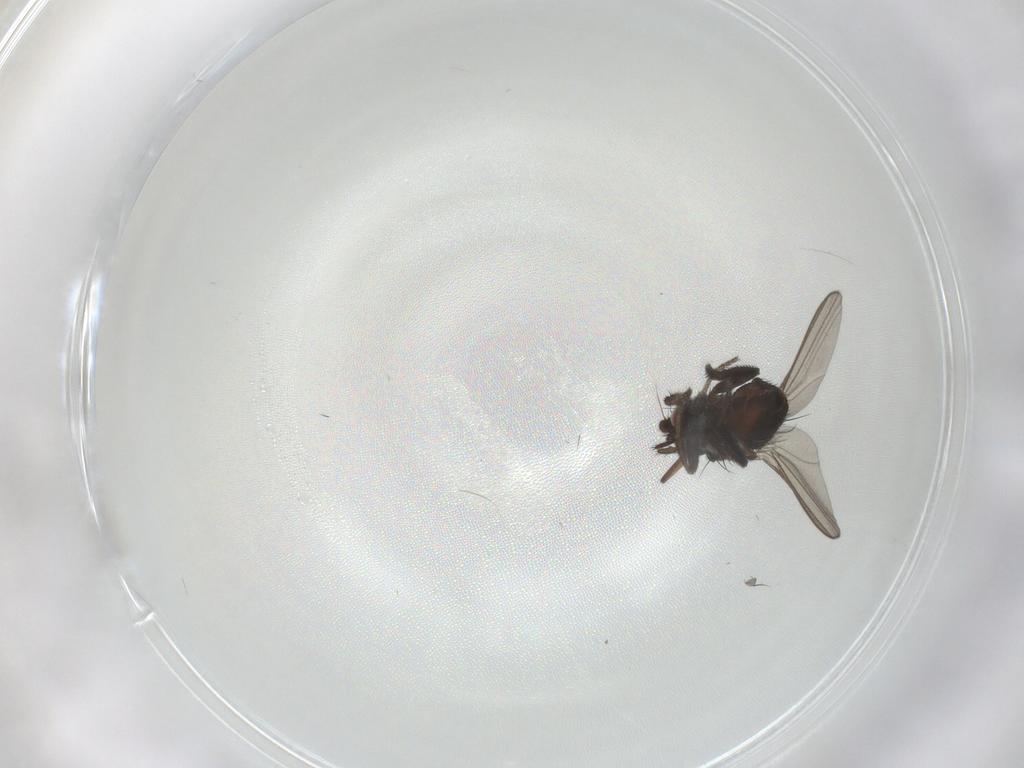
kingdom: Animalia
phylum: Arthropoda
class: Insecta
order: Diptera
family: Milichiidae
